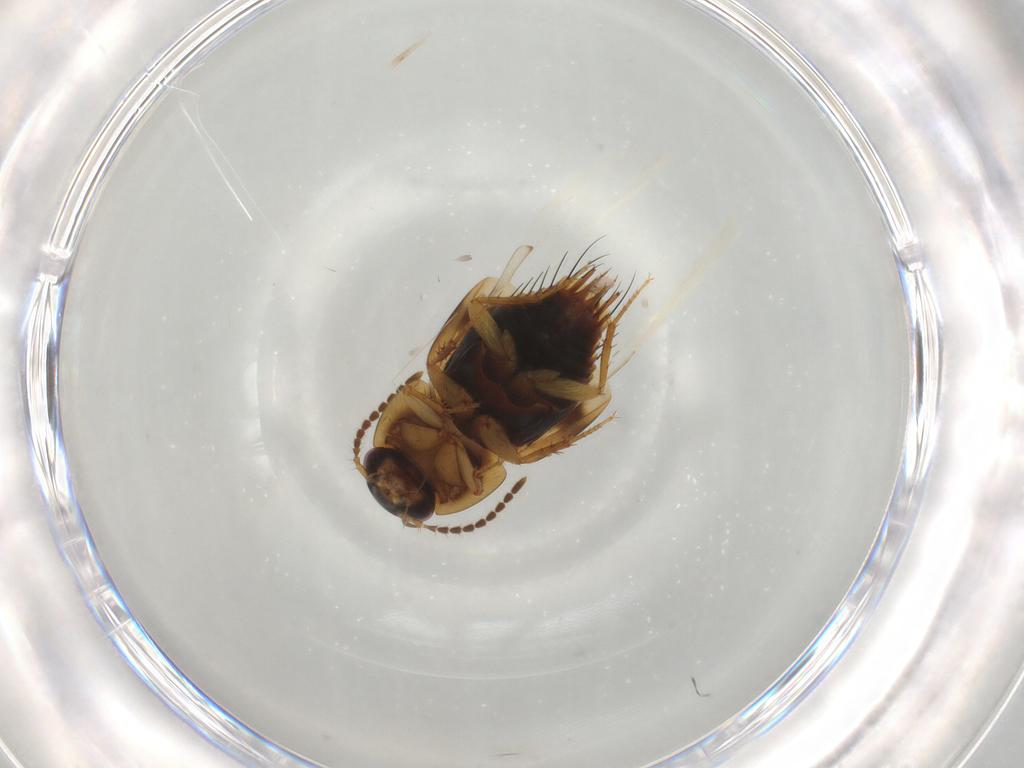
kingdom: Animalia
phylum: Arthropoda
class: Insecta
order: Coleoptera
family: Staphylinidae
